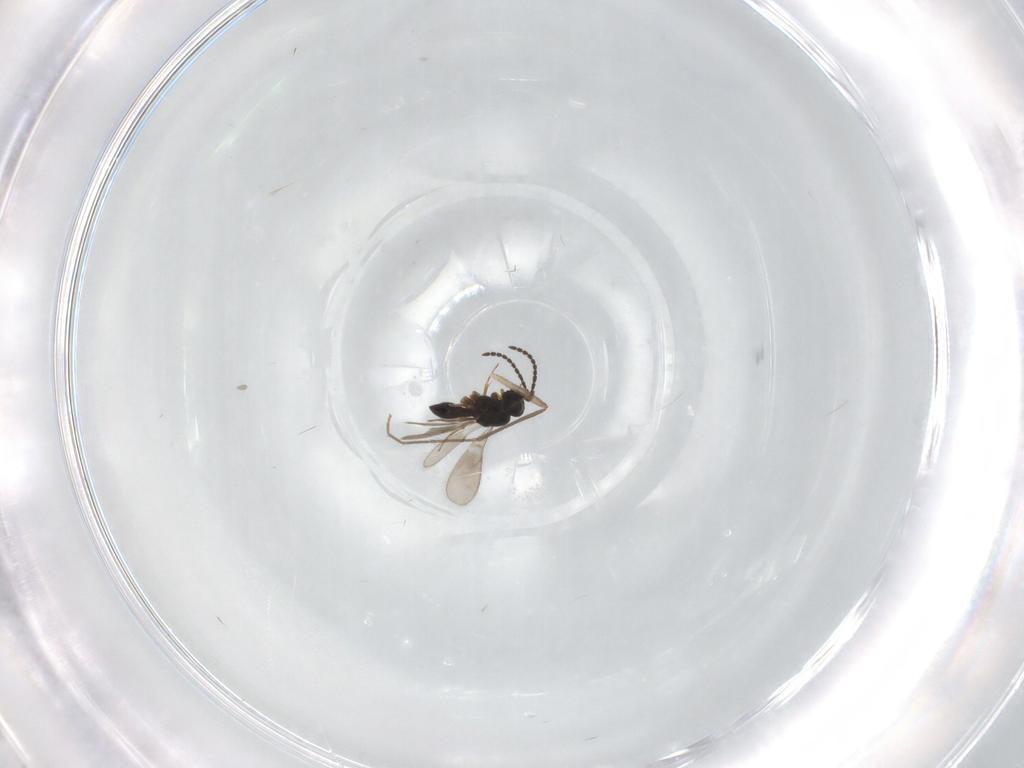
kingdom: Animalia
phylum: Arthropoda
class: Insecta
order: Hymenoptera
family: Scelionidae
